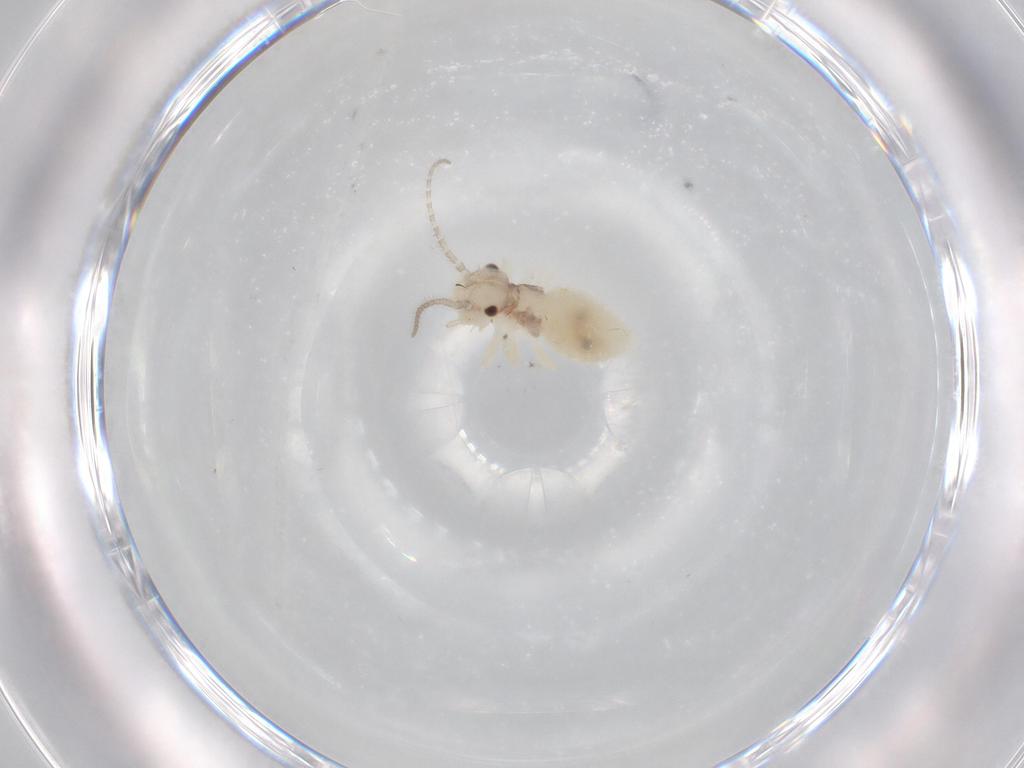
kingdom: Animalia
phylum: Arthropoda
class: Insecta
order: Psocodea
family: Amphipsocidae
